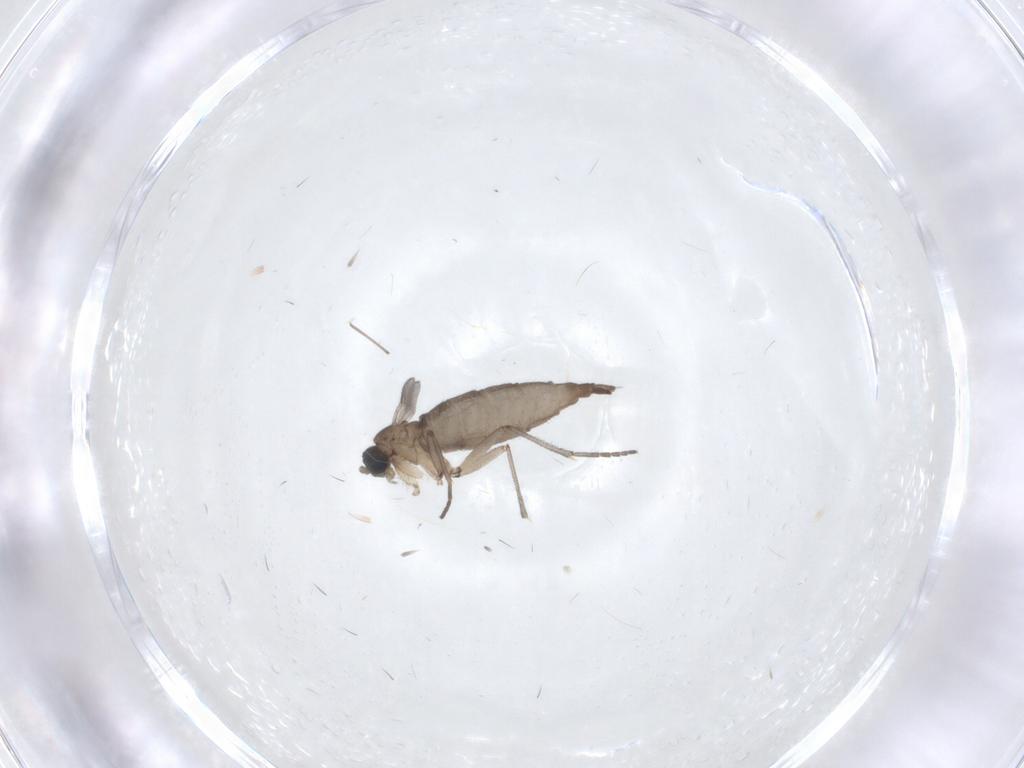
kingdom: Animalia
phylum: Arthropoda
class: Insecta
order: Diptera
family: Sciaridae
